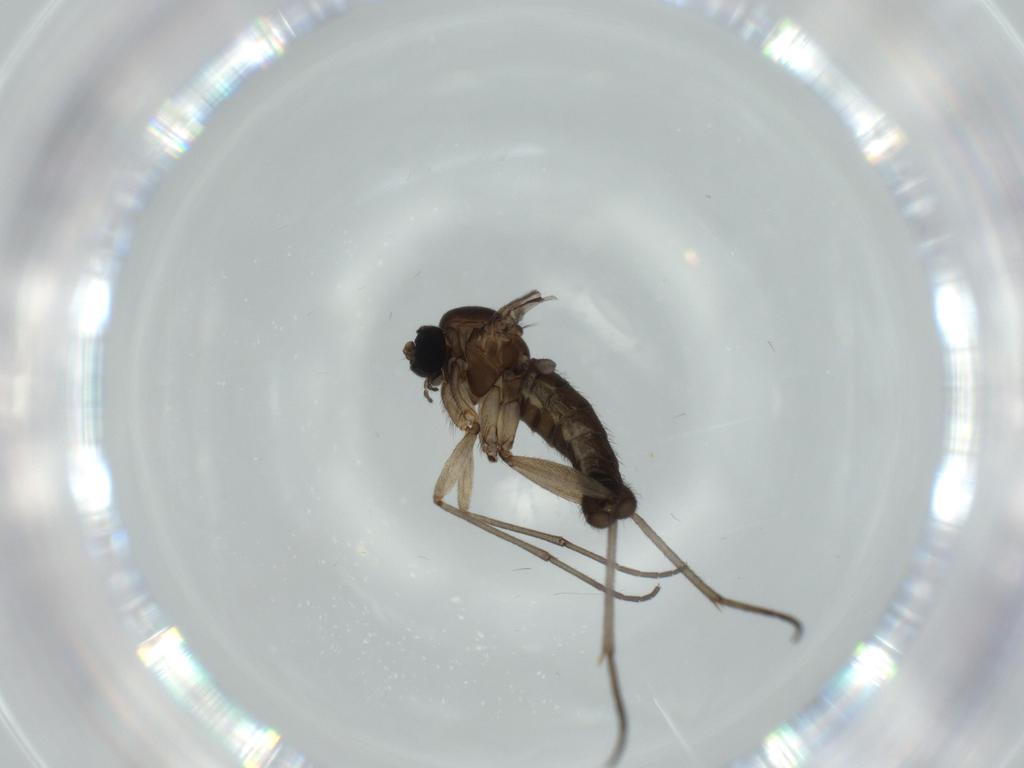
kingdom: Animalia
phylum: Arthropoda
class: Insecta
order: Diptera
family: Sciaridae
